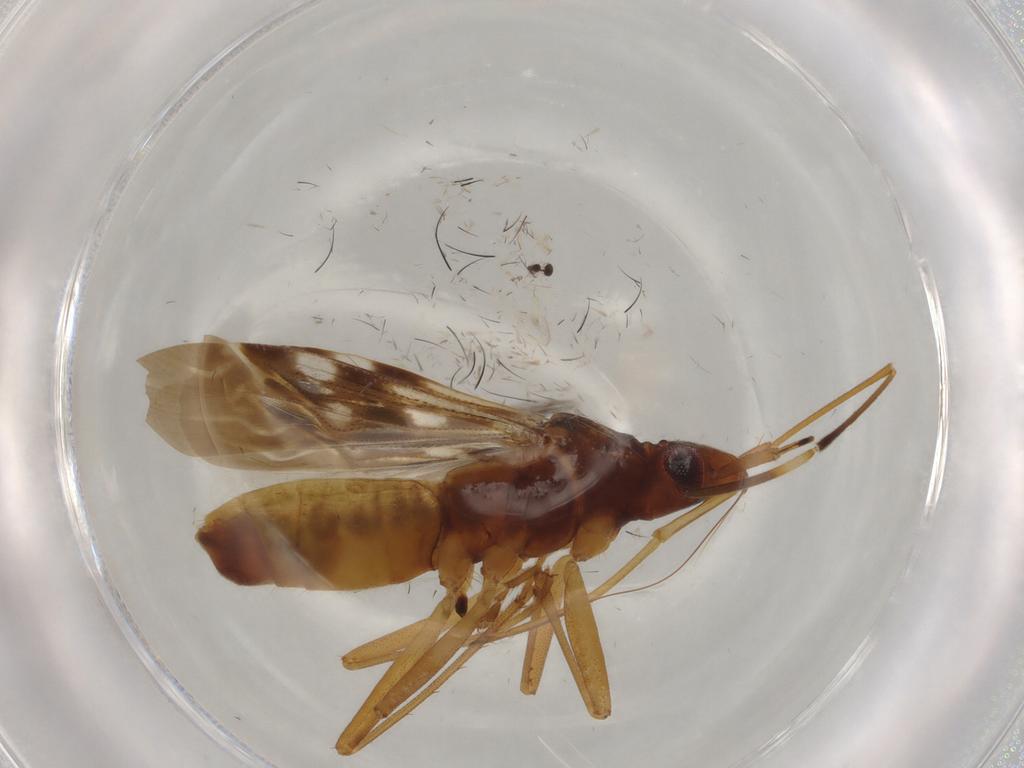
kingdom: Animalia
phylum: Arthropoda
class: Insecta
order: Hemiptera
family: Rhyparochromidae
